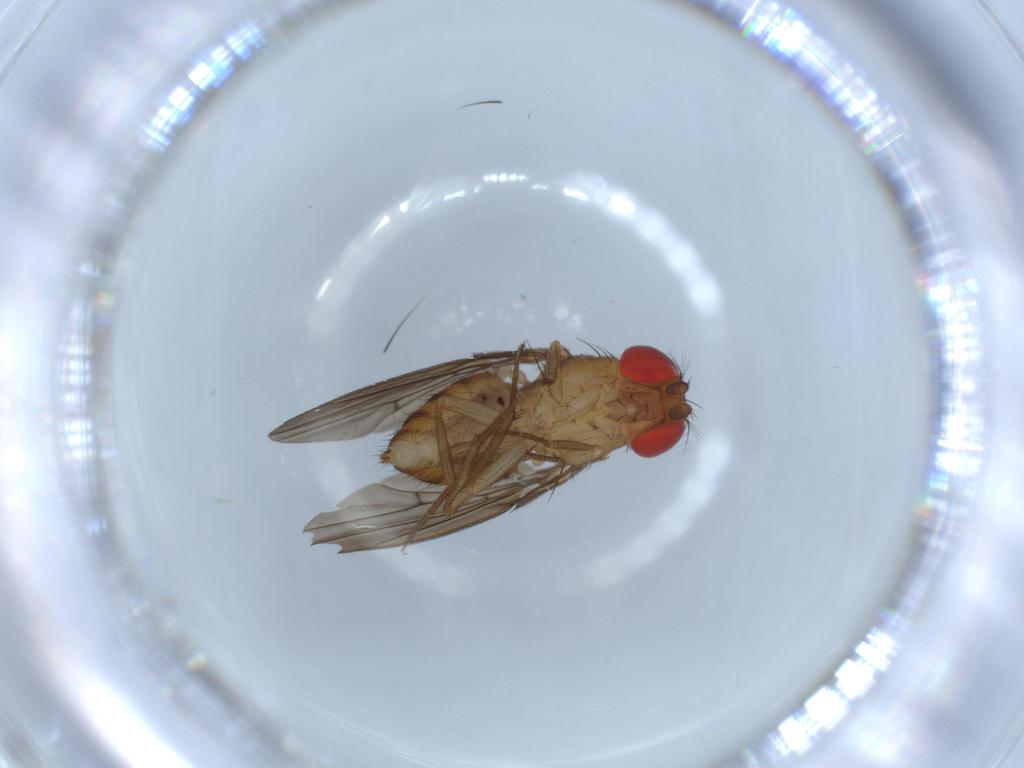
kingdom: Animalia
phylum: Arthropoda
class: Insecta
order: Diptera
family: Drosophilidae
